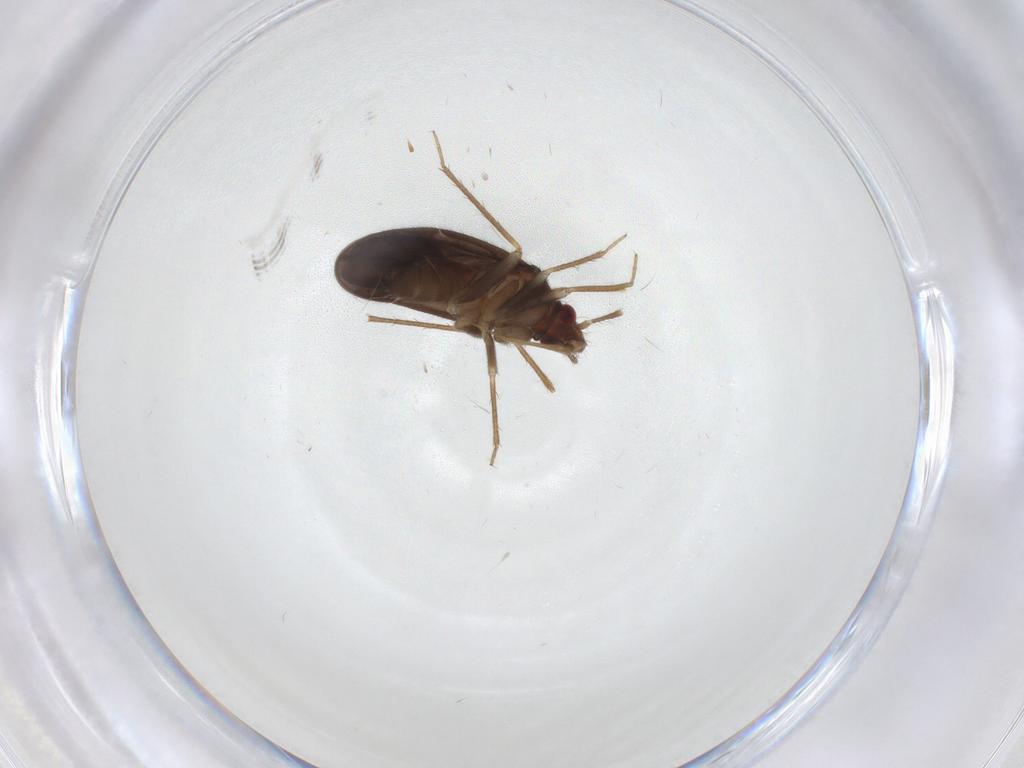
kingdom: Animalia
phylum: Arthropoda
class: Insecta
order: Hemiptera
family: Ceratocombidae
